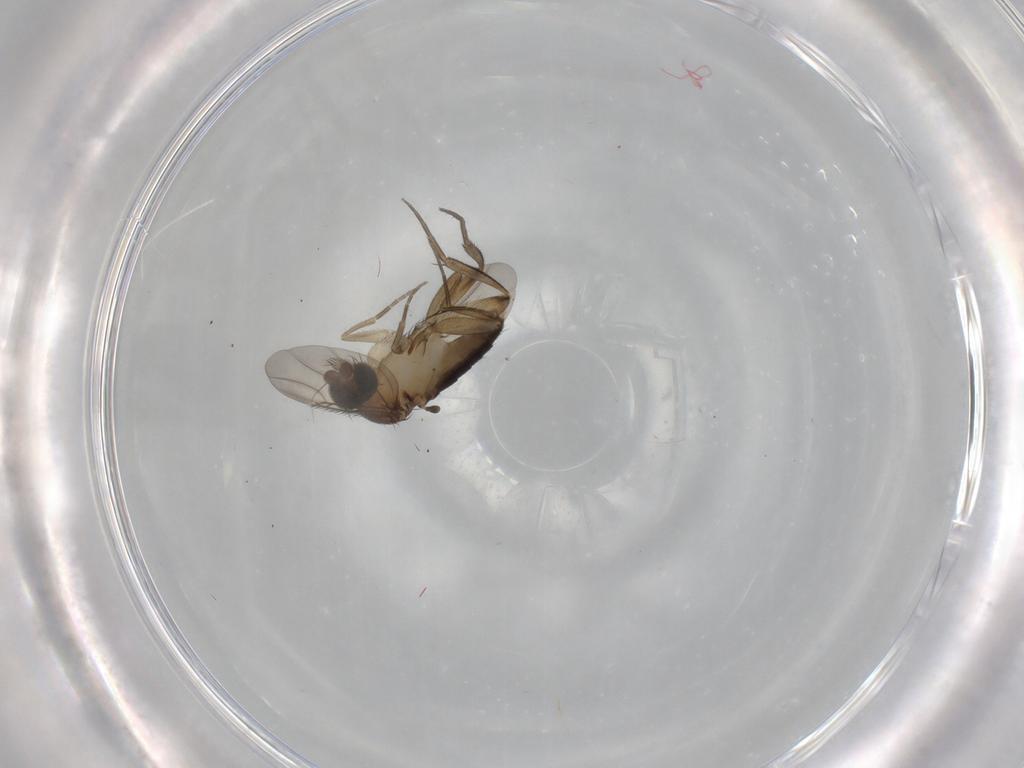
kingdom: Animalia
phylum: Arthropoda
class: Insecta
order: Diptera
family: Phoridae
